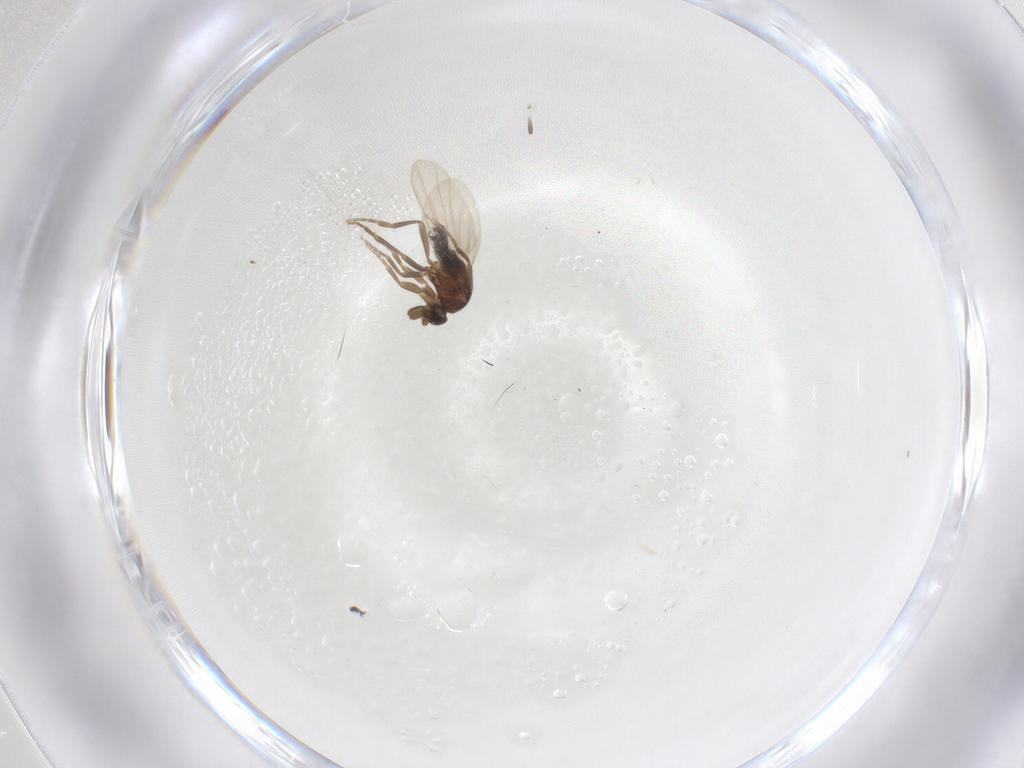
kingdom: Animalia
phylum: Arthropoda
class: Insecta
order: Diptera
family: Phoridae
